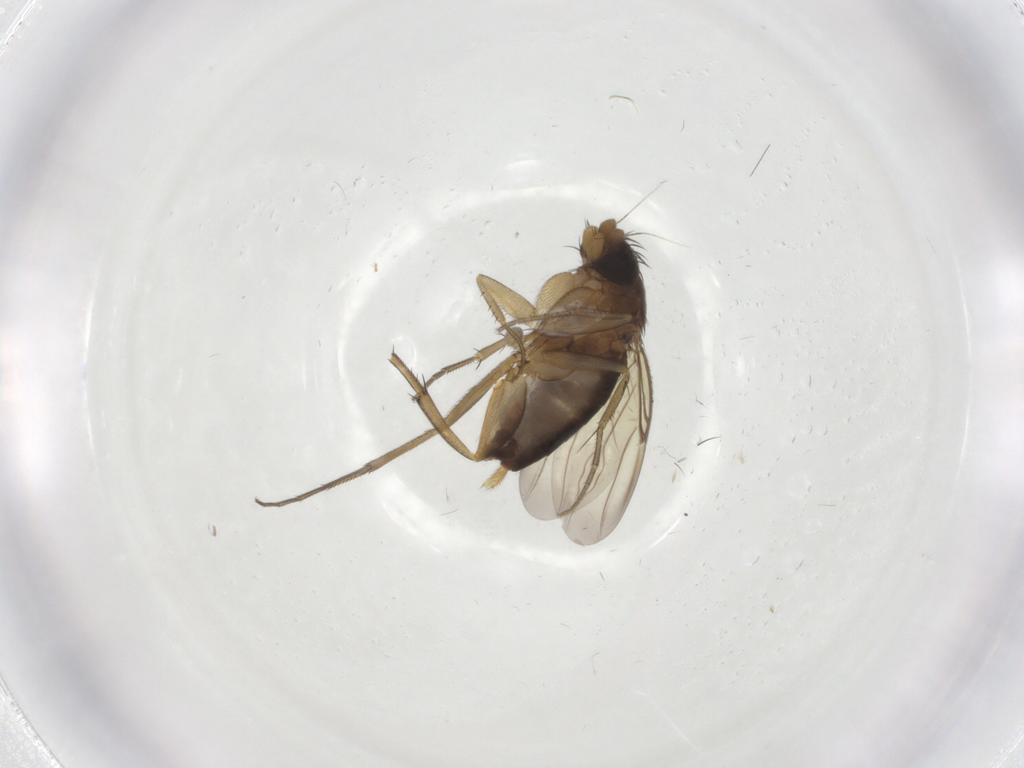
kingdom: Animalia
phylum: Arthropoda
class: Insecta
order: Diptera
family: Phoridae
